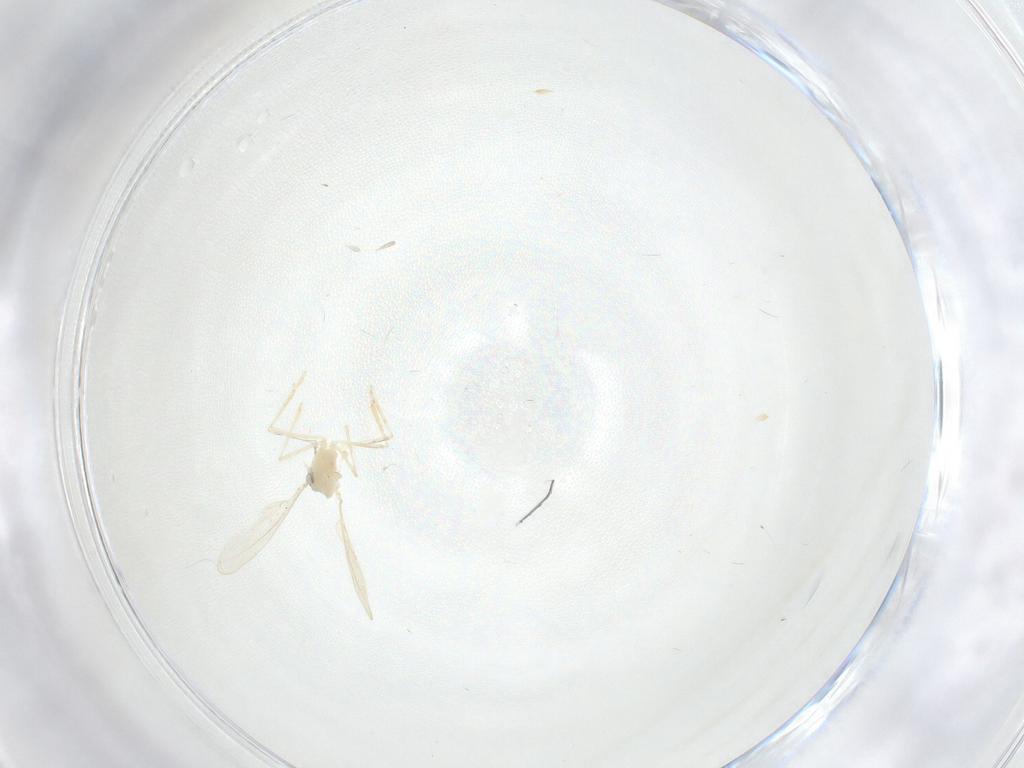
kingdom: Animalia
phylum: Arthropoda
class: Insecta
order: Diptera
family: Cecidomyiidae
